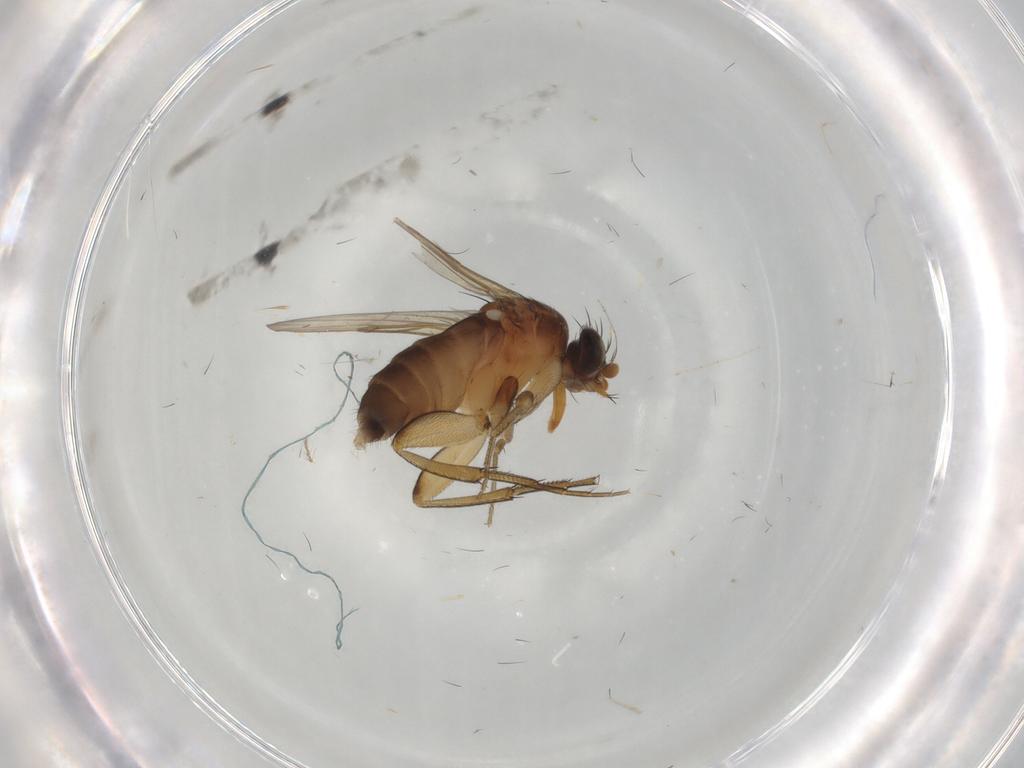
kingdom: Animalia
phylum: Arthropoda
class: Insecta
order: Diptera
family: Phoridae
